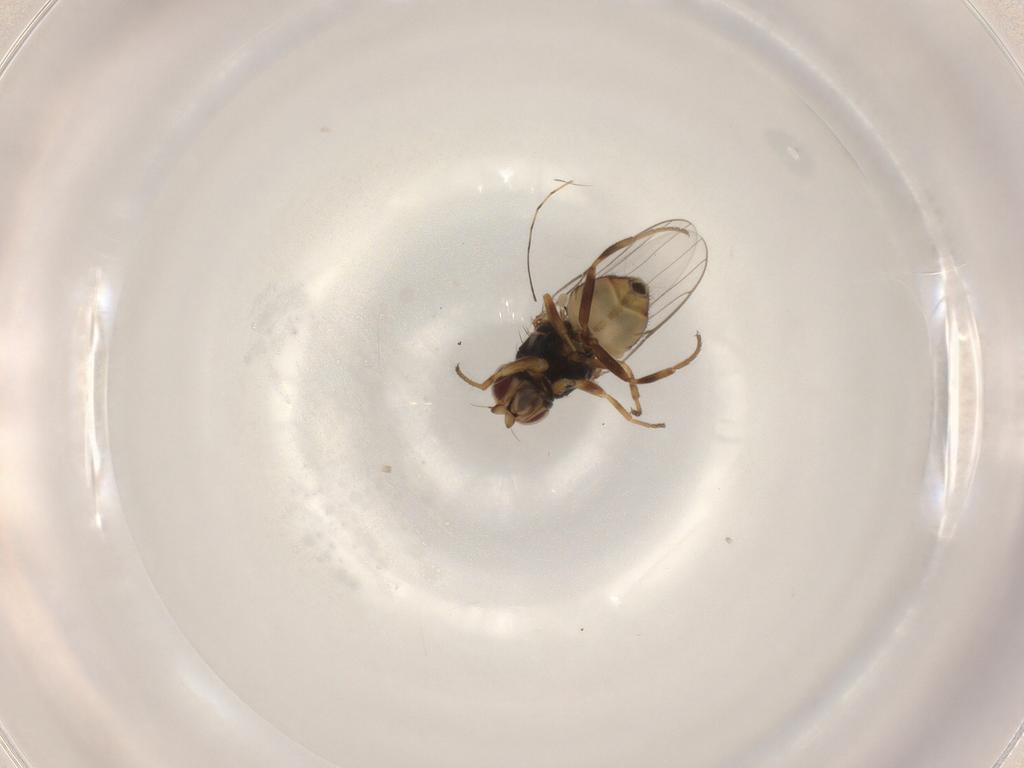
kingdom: Animalia
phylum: Arthropoda
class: Insecta
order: Diptera
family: Chloropidae
